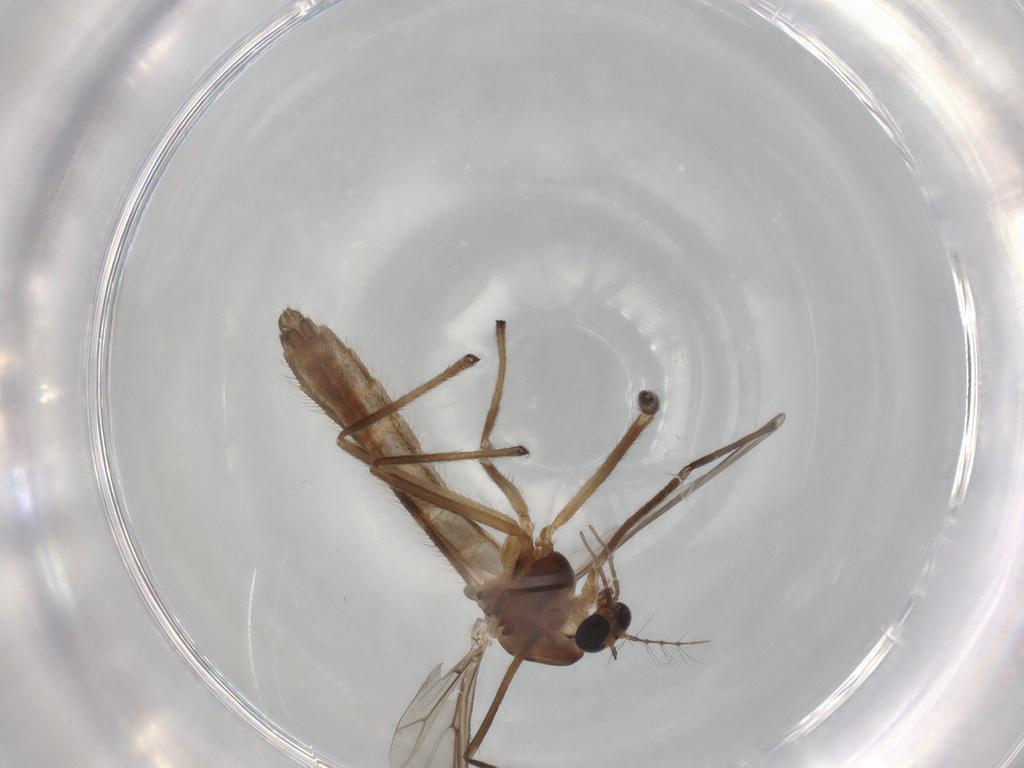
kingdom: Animalia
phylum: Arthropoda
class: Insecta
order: Diptera
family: Chironomidae
